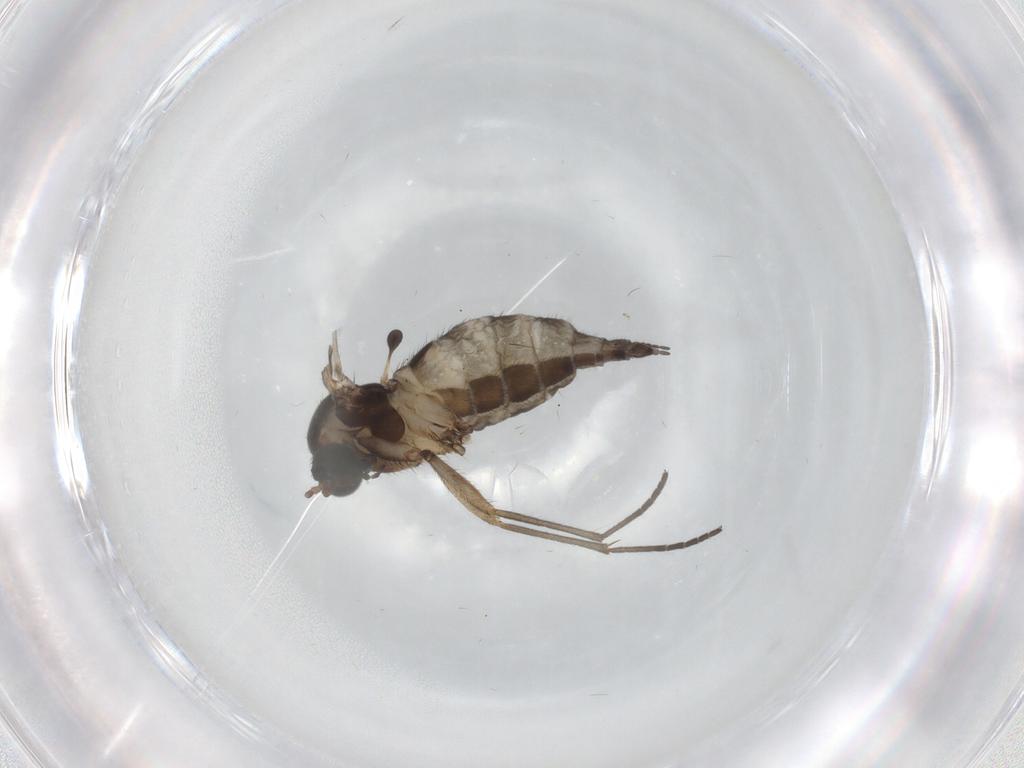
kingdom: Animalia
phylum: Arthropoda
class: Insecta
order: Diptera
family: Sciaridae
